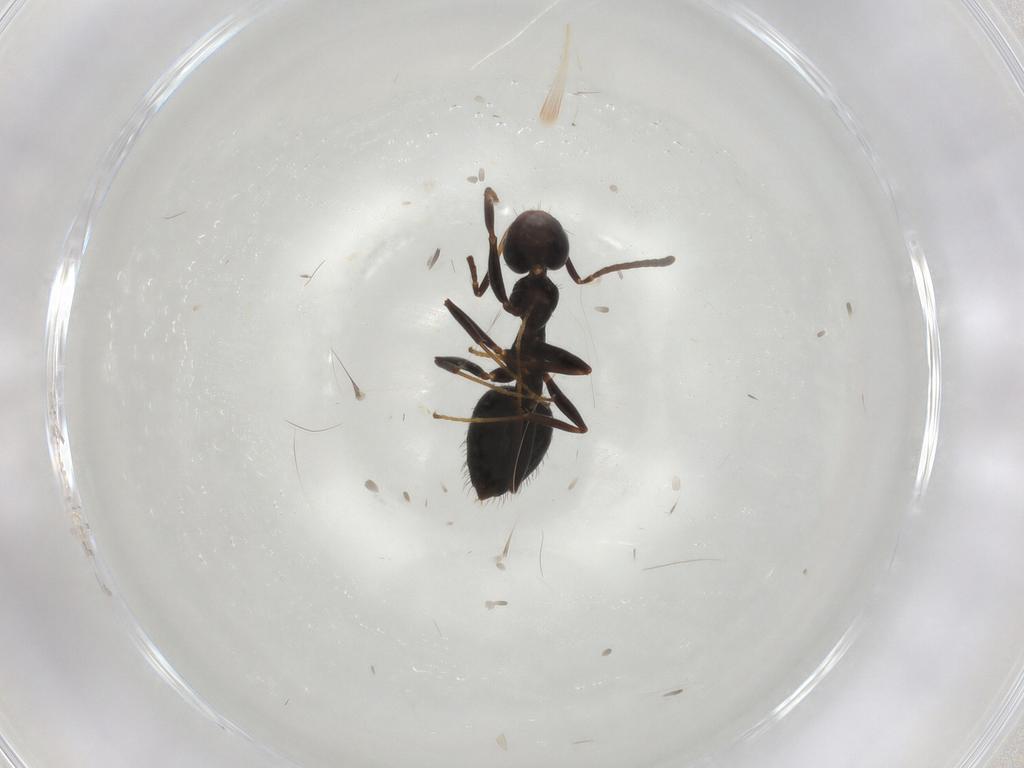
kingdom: Animalia
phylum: Arthropoda
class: Insecta
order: Hymenoptera
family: Formicidae
